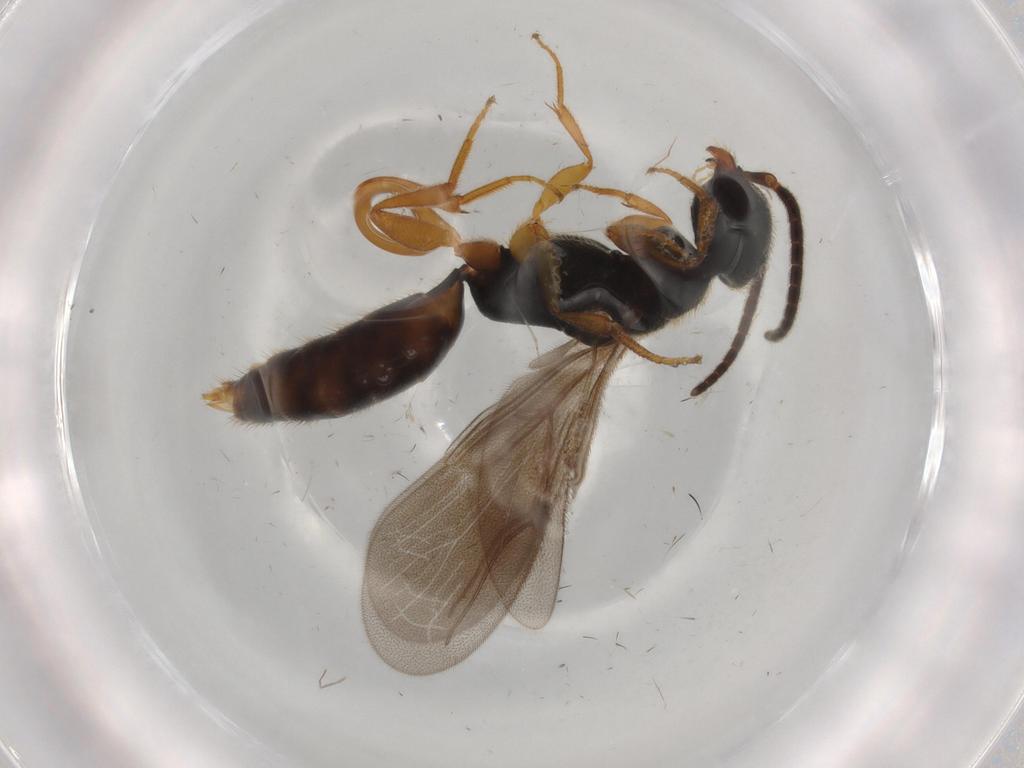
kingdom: Animalia
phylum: Arthropoda
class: Insecta
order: Hymenoptera
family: Bethylidae
